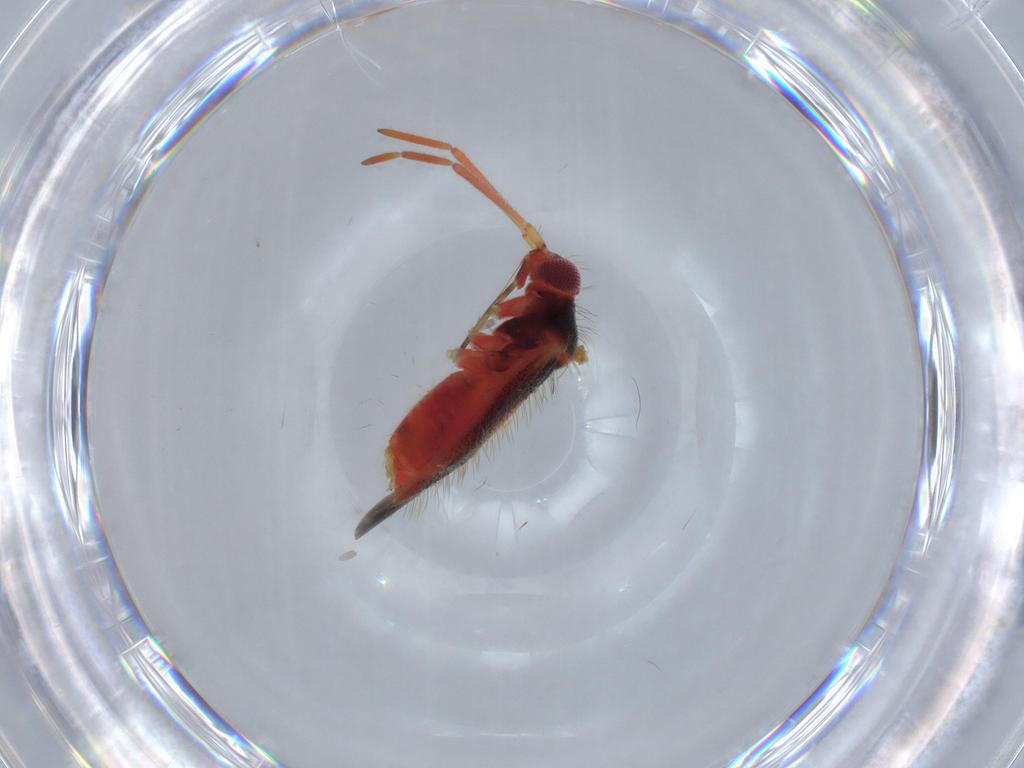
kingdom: Animalia
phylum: Arthropoda
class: Insecta
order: Hemiptera
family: Miridae
